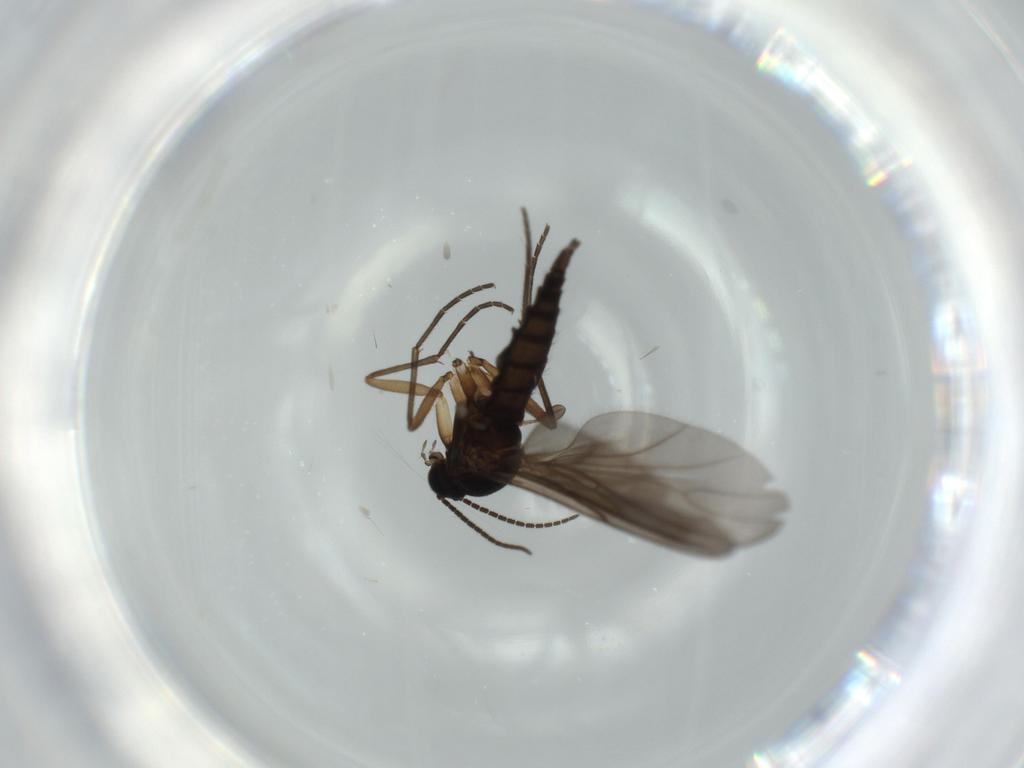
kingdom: Animalia
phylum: Arthropoda
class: Insecta
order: Diptera
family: Sciaridae
